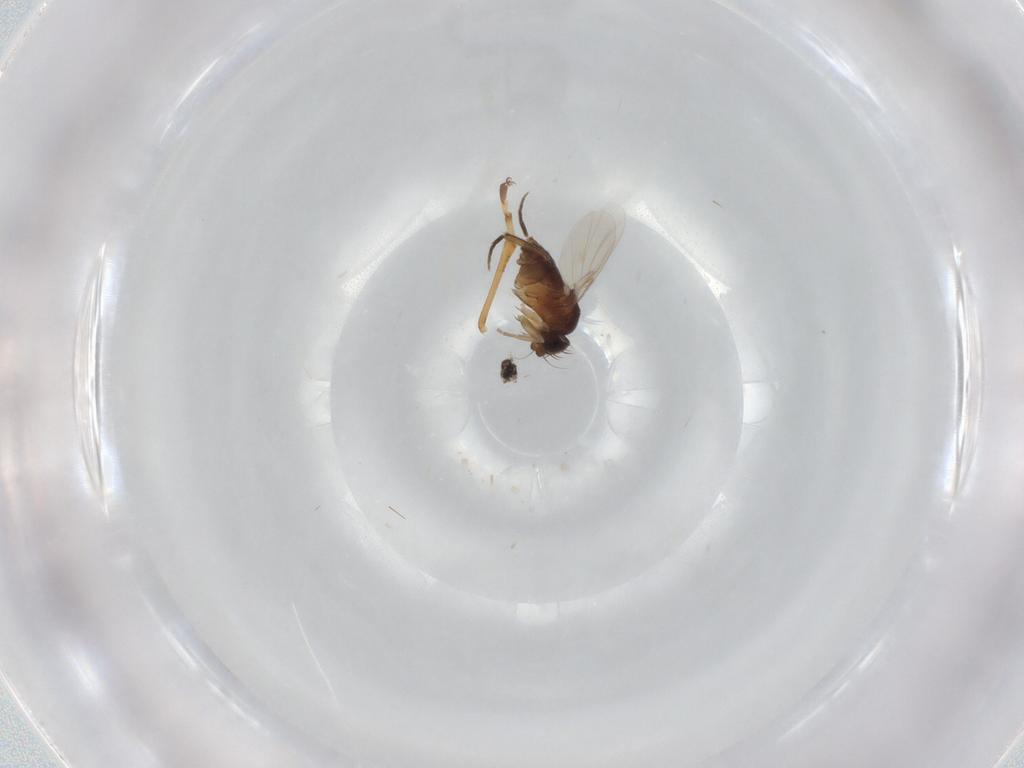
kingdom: Animalia
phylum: Arthropoda
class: Insecta
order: Diptera
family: Phoridae
